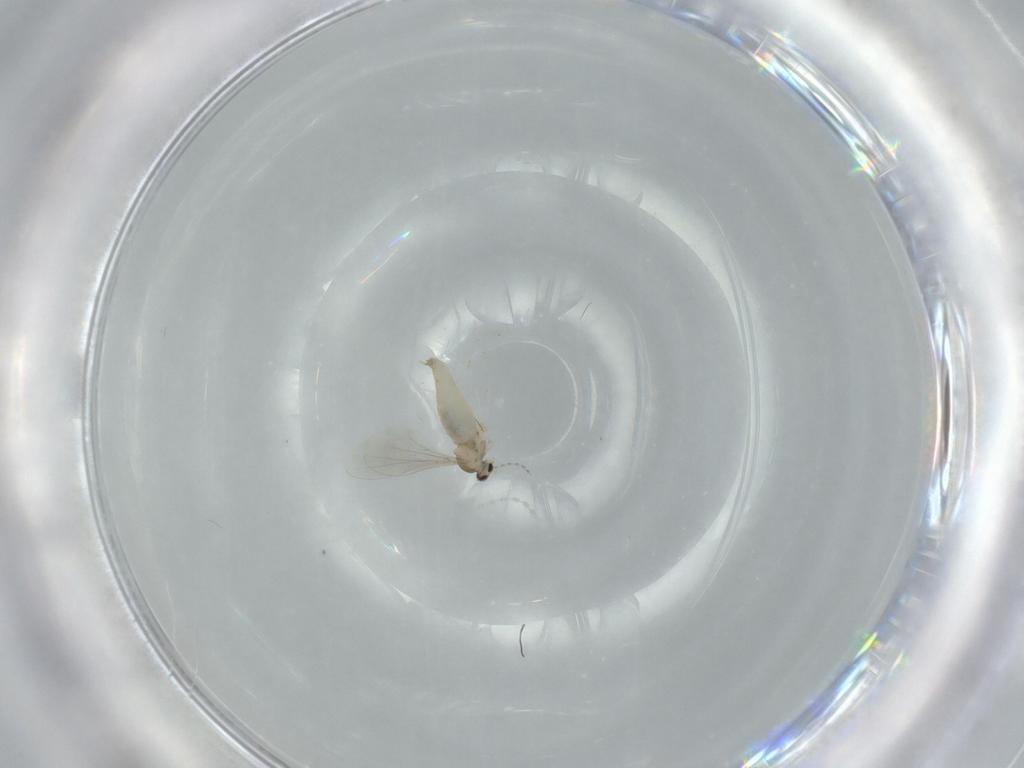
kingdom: Animalia
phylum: Arthropoda
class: Insecta
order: Diptera
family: Cecidomyiidae
